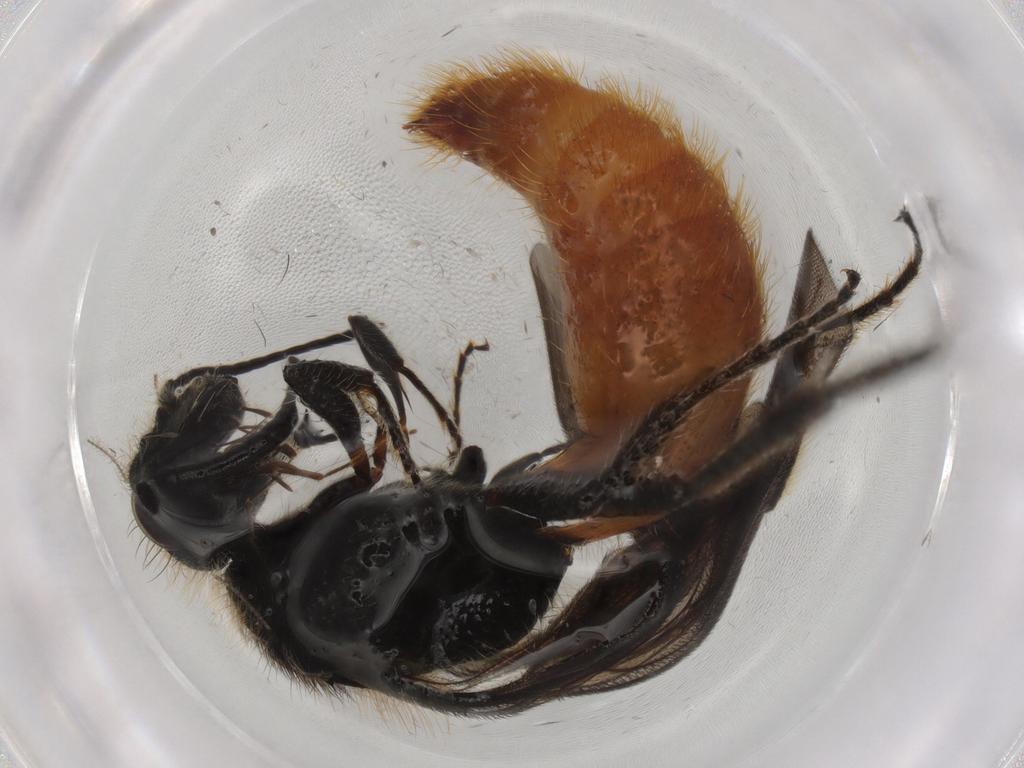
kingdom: Animalia
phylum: Arthropoda
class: Insecta
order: Hymenoptera
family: Mutillidae
